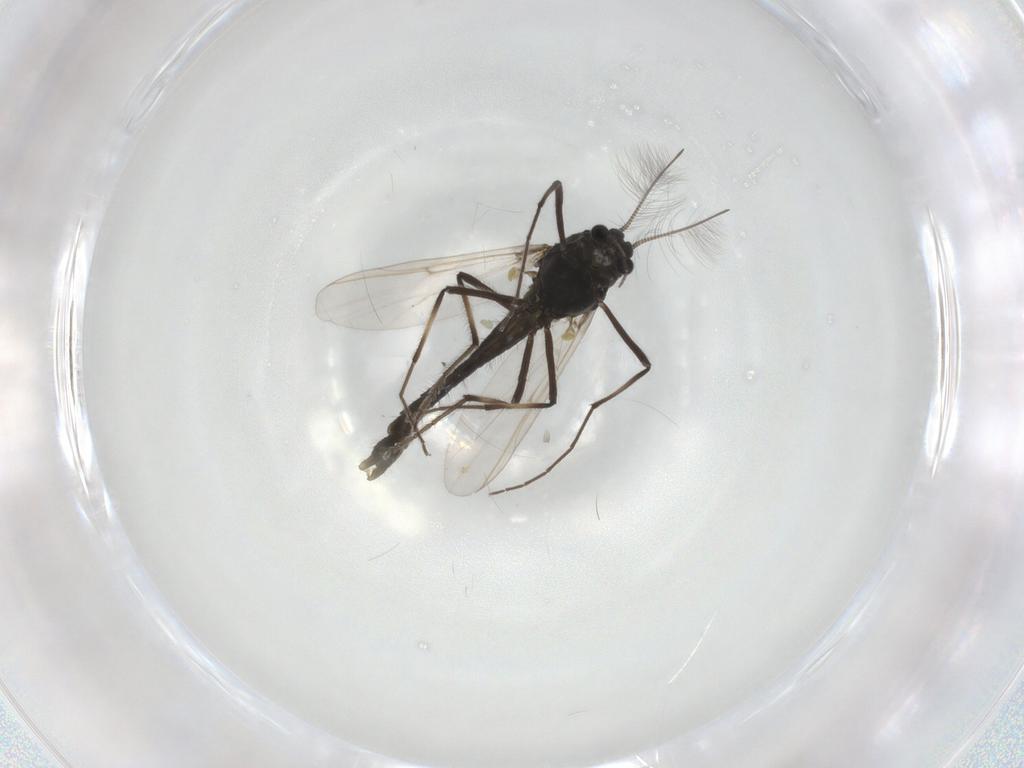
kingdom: Animalia
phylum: Arthropoda
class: Insecta
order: Diptera
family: Chironomidae
